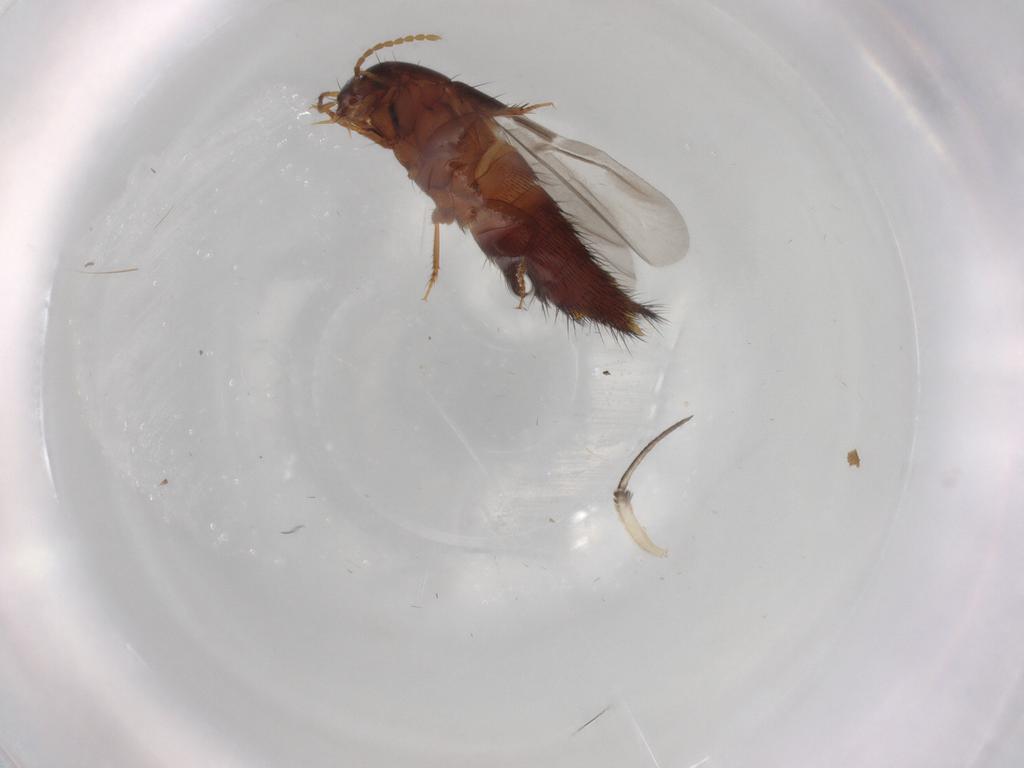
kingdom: Animalia
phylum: Arthropoda
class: Insecta
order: Coleoptera
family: Staphylinidae
